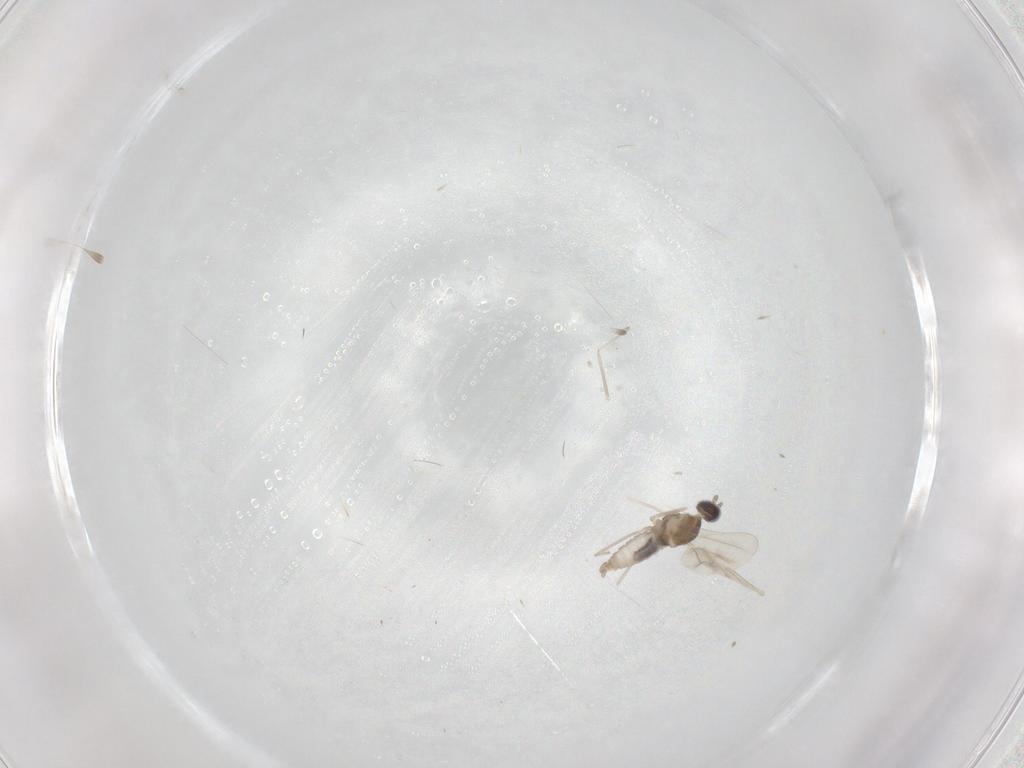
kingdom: Animalia
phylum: Arthropoda
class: Insecta
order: Diptera
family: Cecidomyiidae
